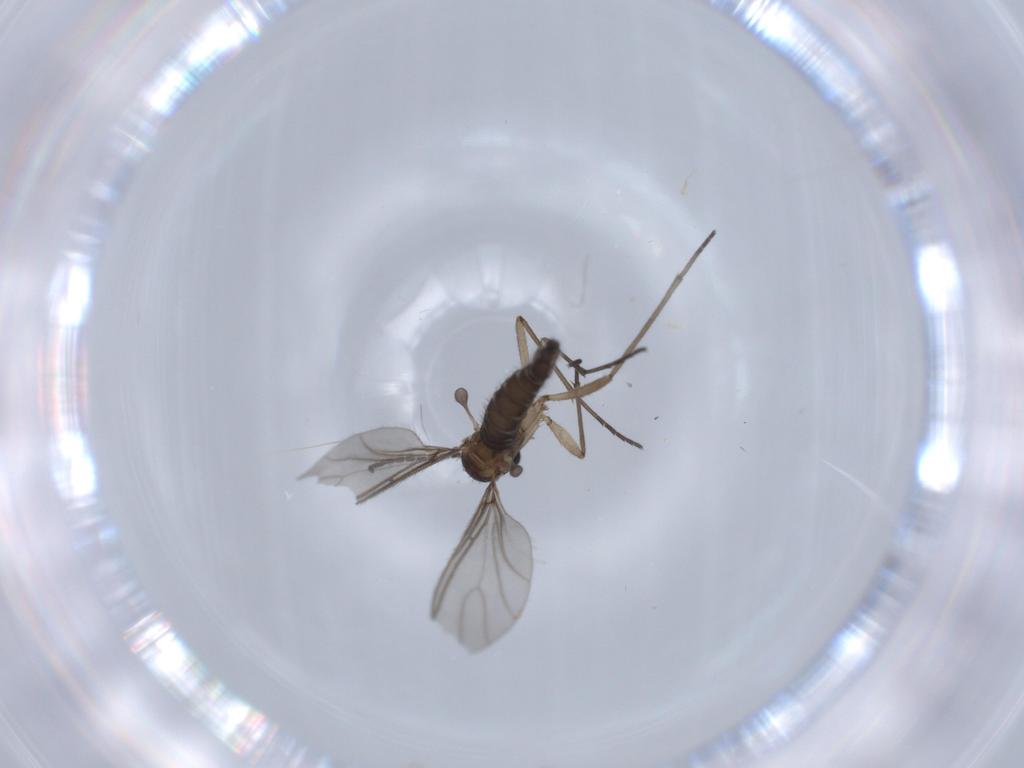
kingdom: Animalia
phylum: Arthropoda
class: Insecta
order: Diptera
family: Sciaridae
